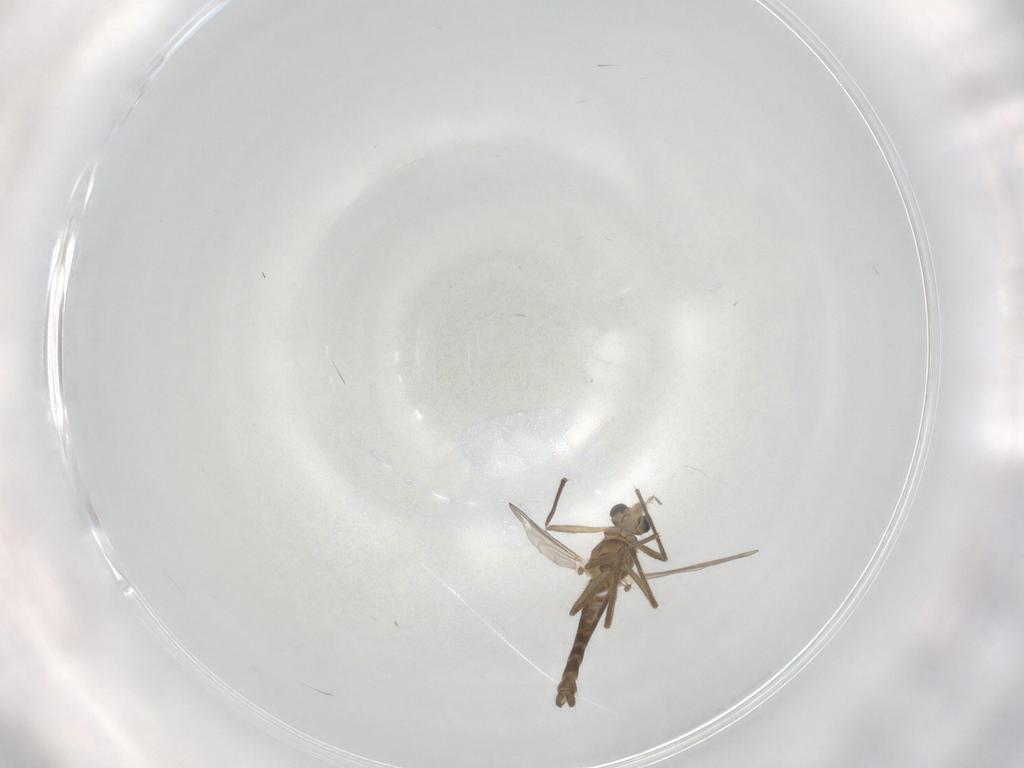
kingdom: Animalia
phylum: Arthropoda
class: Insecta
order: Diptera
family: Chironomidae
